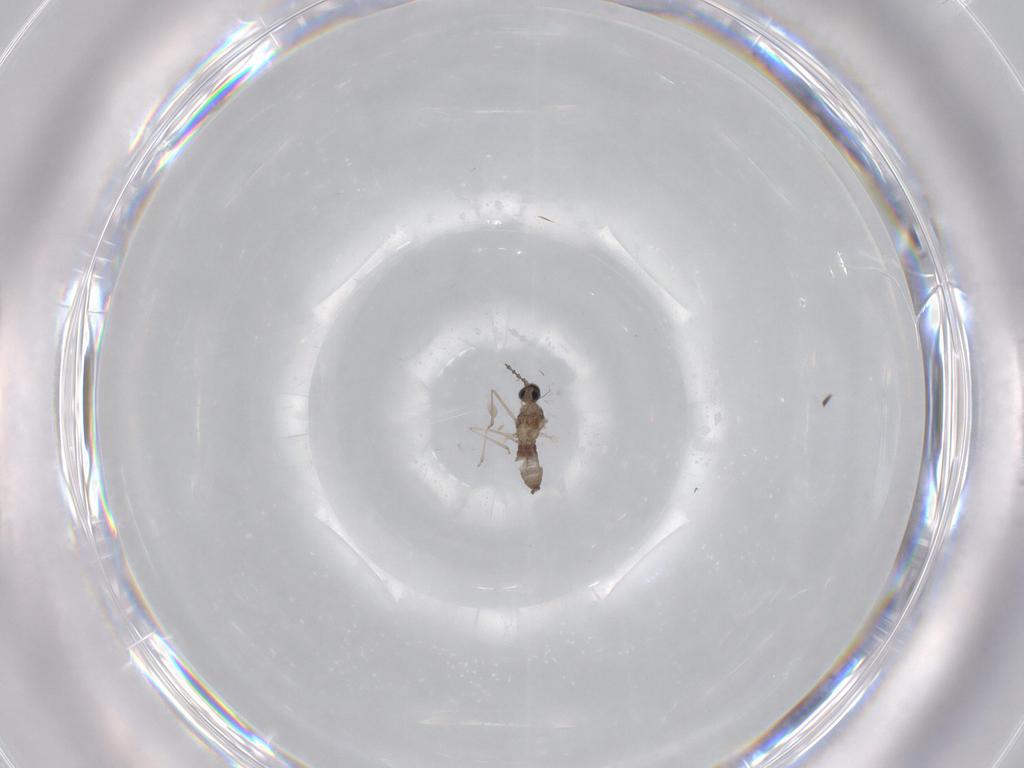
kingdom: Animalia
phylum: Arthropoda
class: Insecta
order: Diptera
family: Cecidomyiidae
